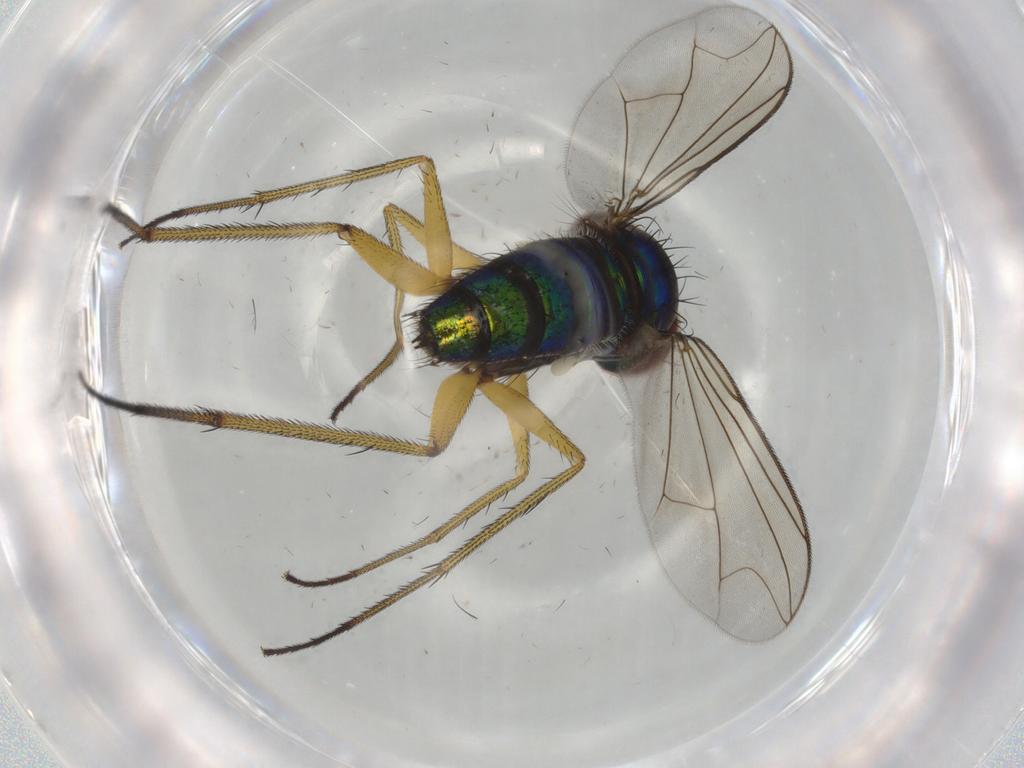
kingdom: Animalia
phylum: Arthropoda
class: Insecta
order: Diptera
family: Dolichopodidae
